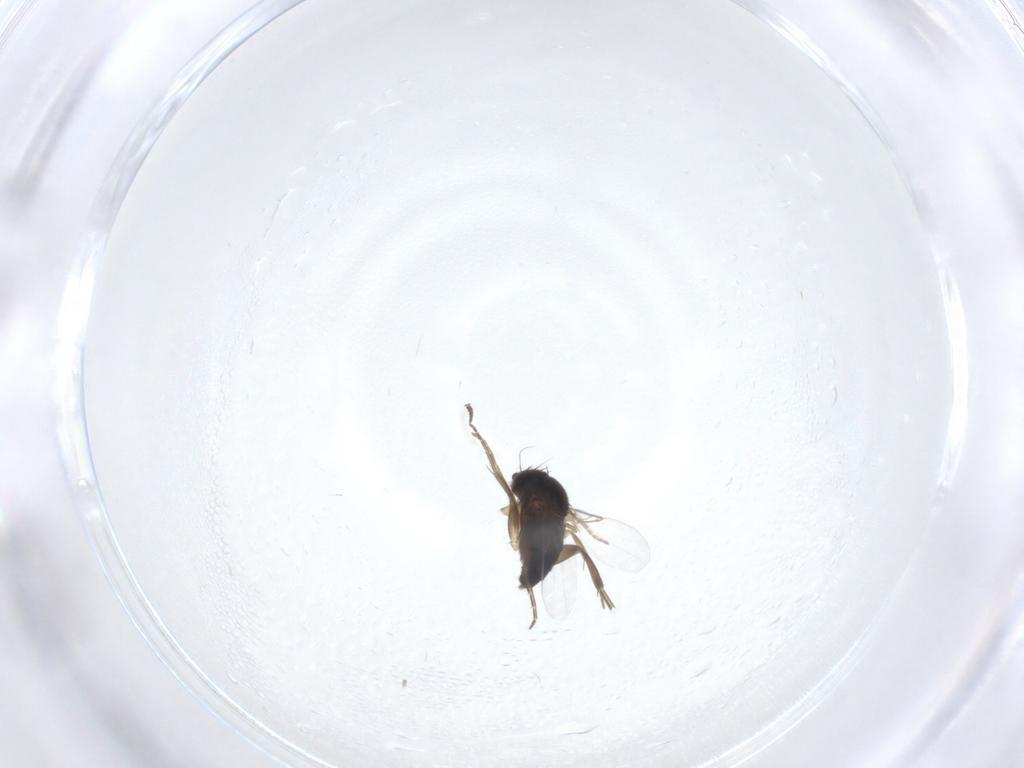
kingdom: Animalia
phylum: Arthropoda
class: Insecta
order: Diptera
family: Phoridae
